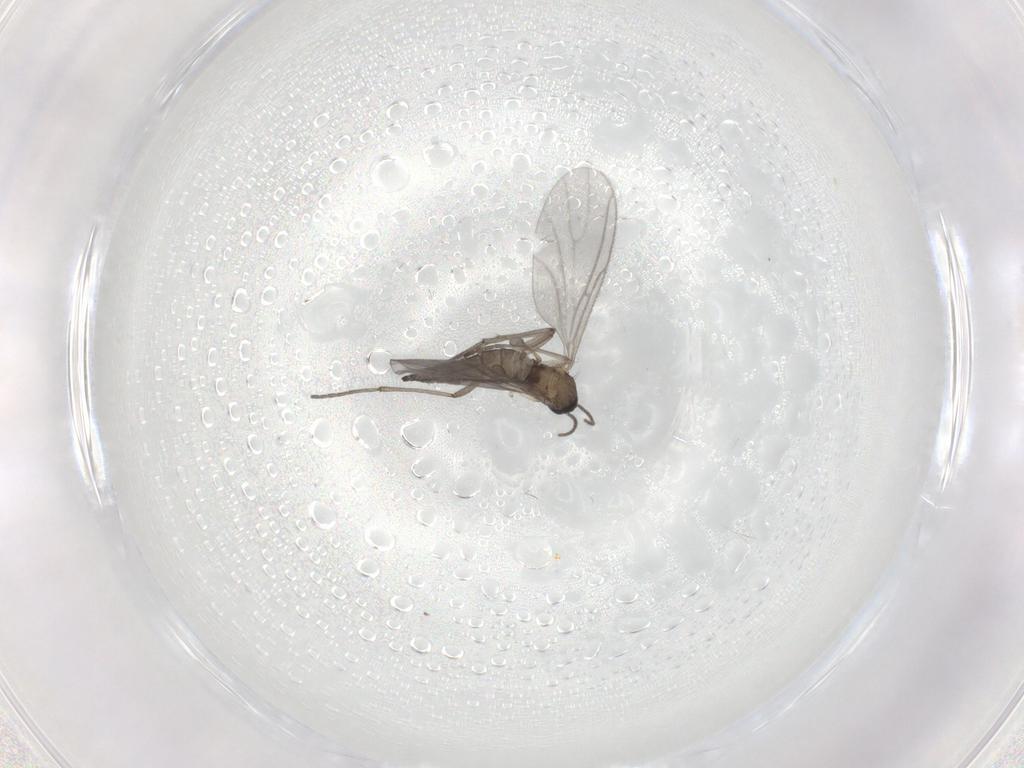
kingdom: Animalia
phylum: Arthropoda
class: Insecta
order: Diptera
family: Sciaridae
